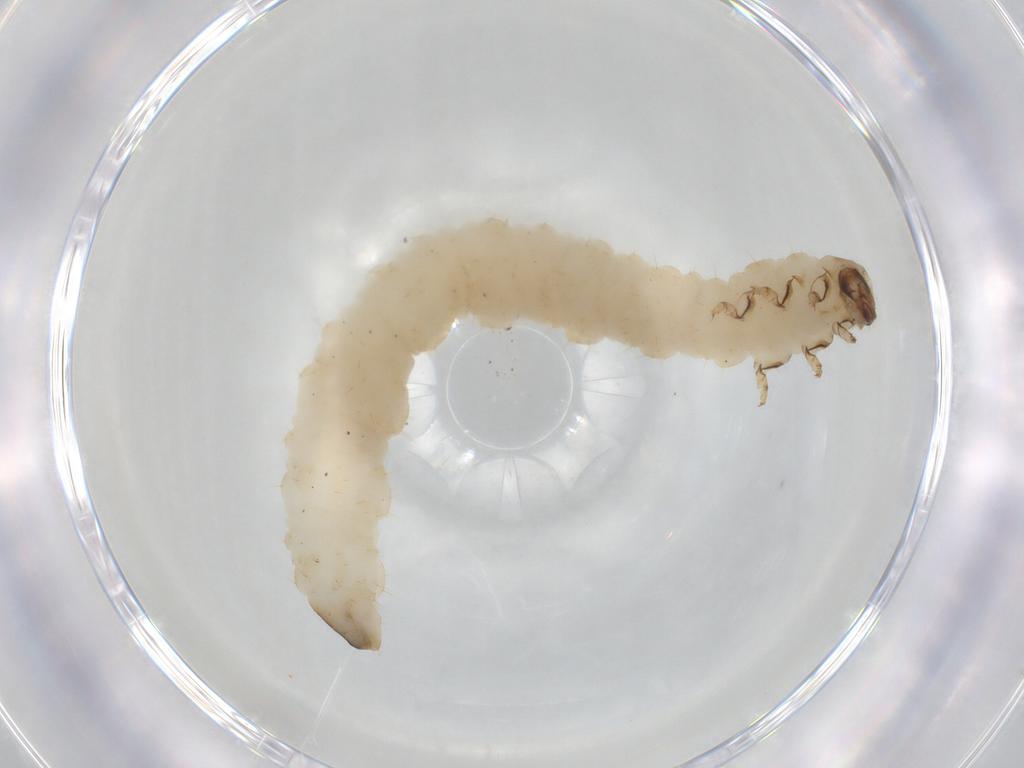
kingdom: Animalia
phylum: Arthropoda
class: Insecta
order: Coleoptera
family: Chrysomelidae
